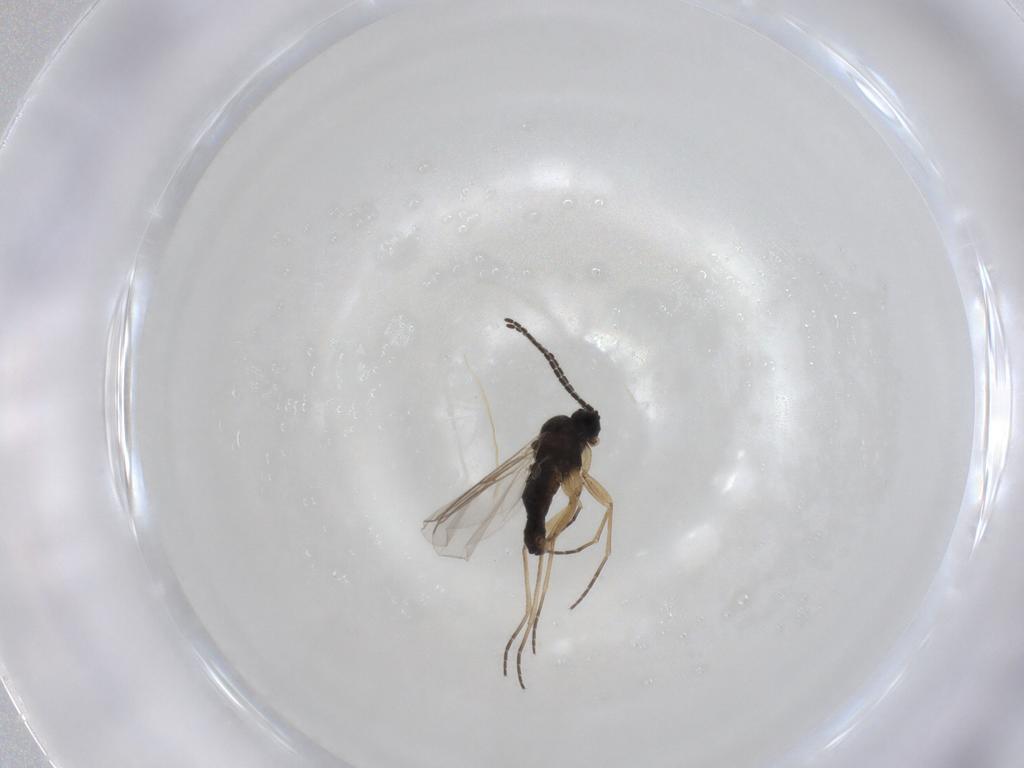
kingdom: Animalia
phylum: Arthropoda
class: Insecta
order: Diptera
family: Sciaridae
